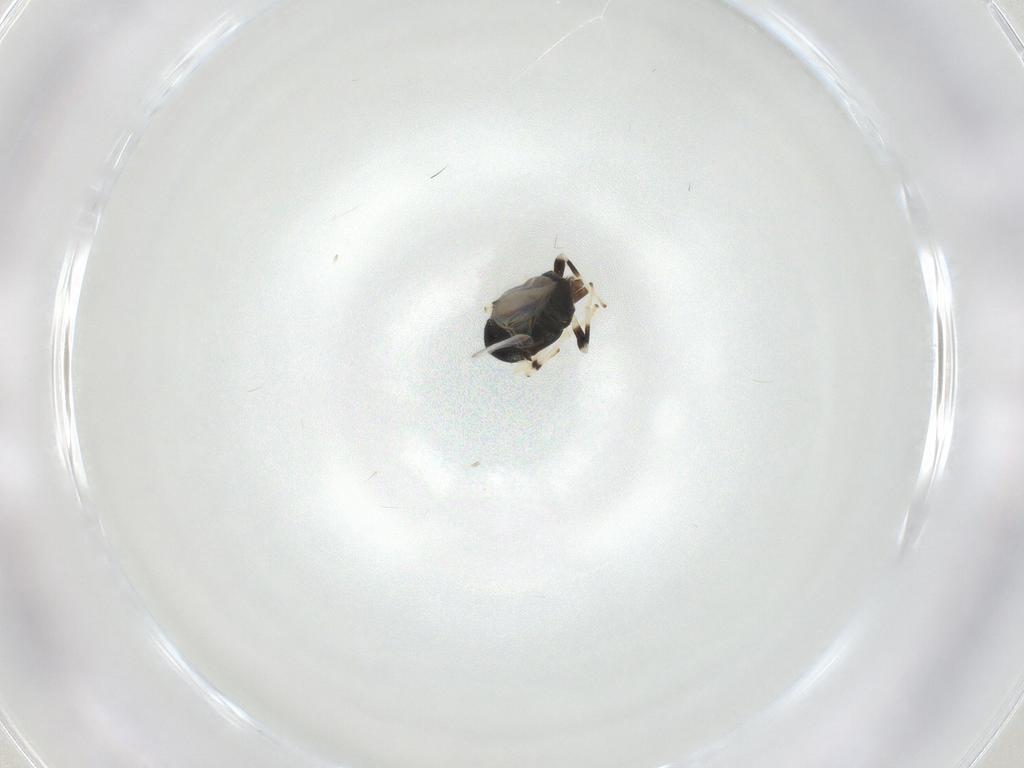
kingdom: Animalia
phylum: Arthropoda
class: Insecta
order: Hymenoptera
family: Encyrtidae
